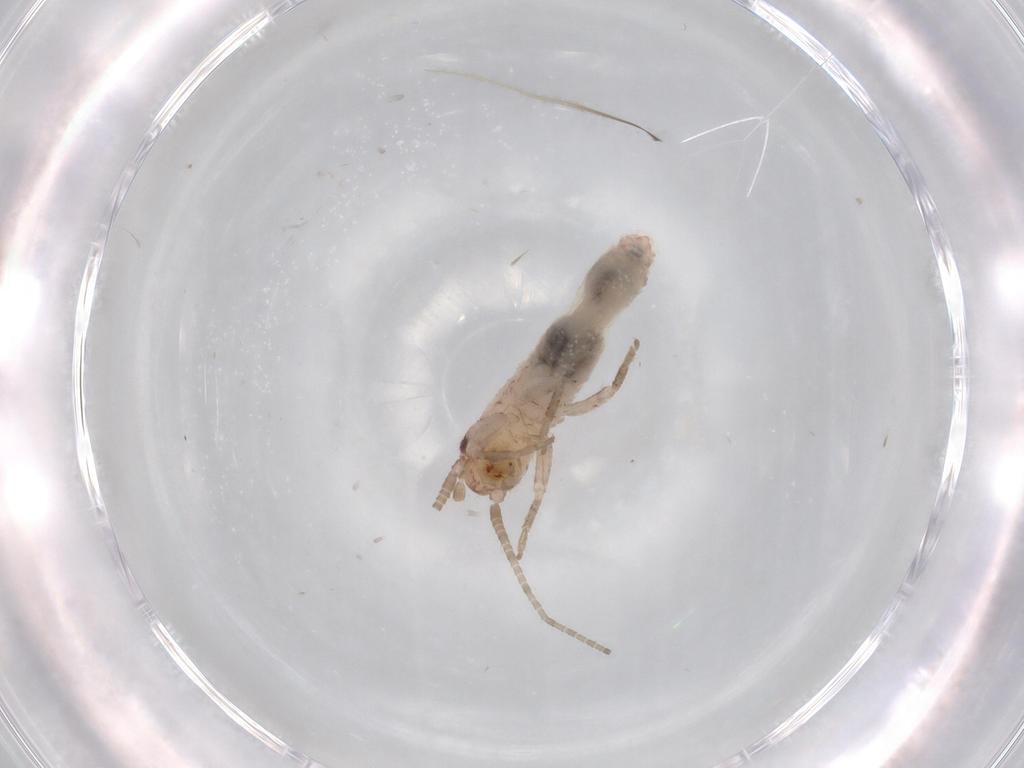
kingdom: Animalia
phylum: Arthropoda
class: Insecta
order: Orthoptera
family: Mogoplistidae
